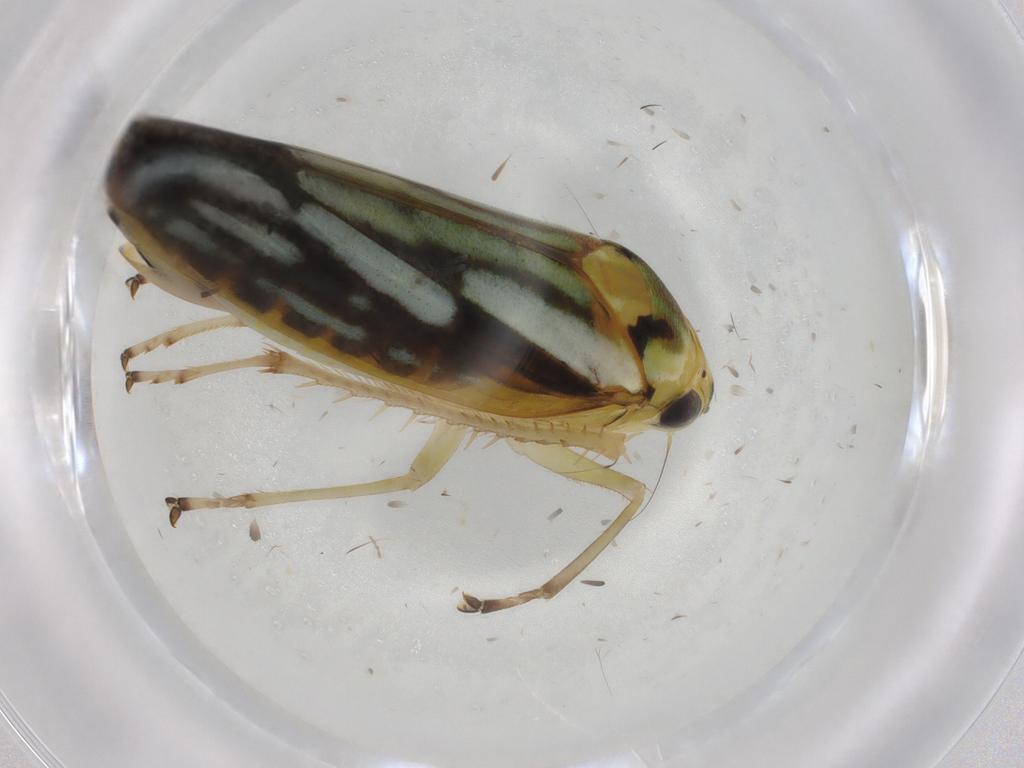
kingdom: Animalia
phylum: Arthropoda
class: Insecta
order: Hemiptera
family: Cicadellidae
